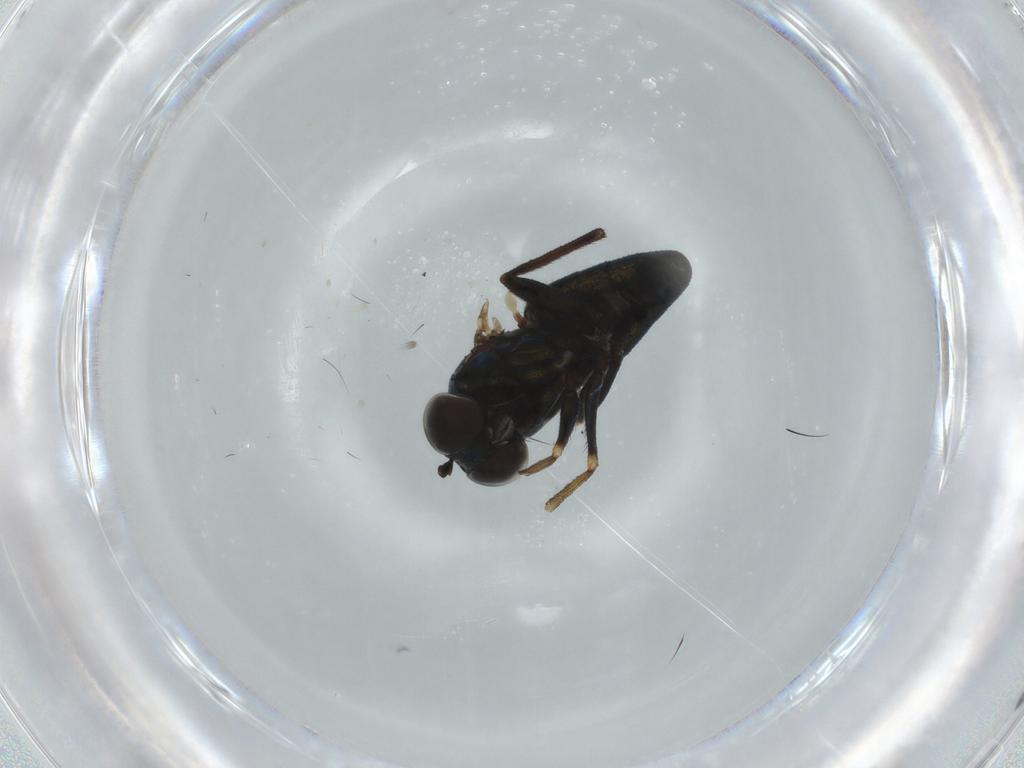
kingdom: Animalia
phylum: Arthropoda
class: Insecta
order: Diptera
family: Dolichopodidae
